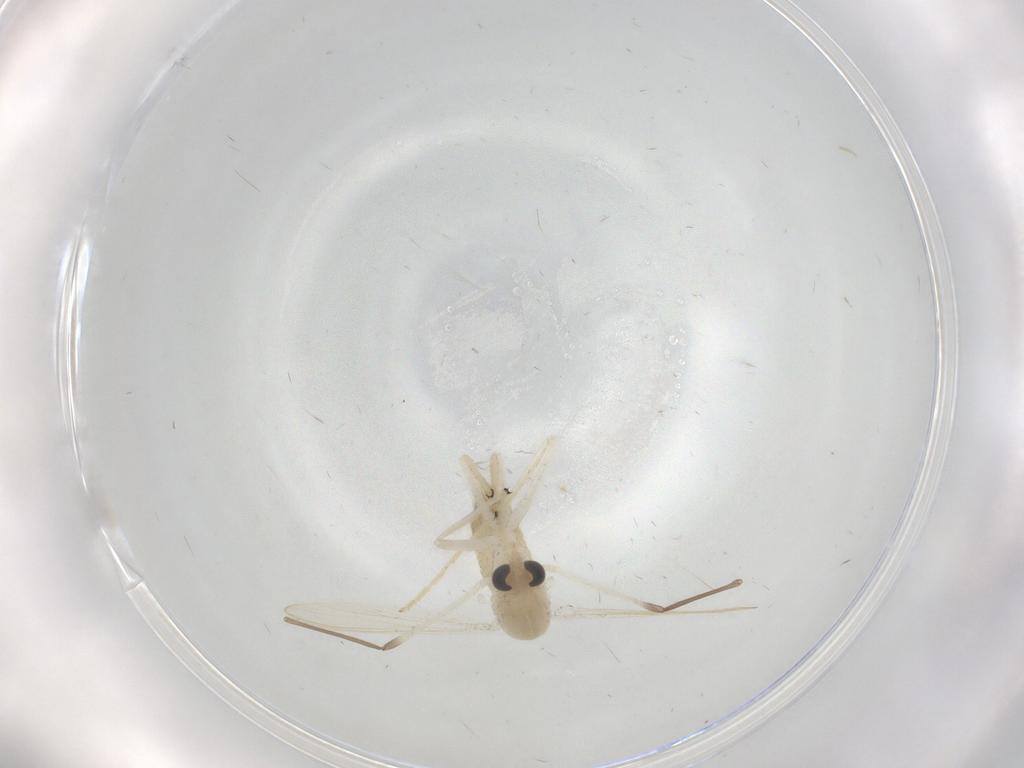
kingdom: Animalia
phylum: Arthropoda
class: Insecta
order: Diptera
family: Chironomidae
